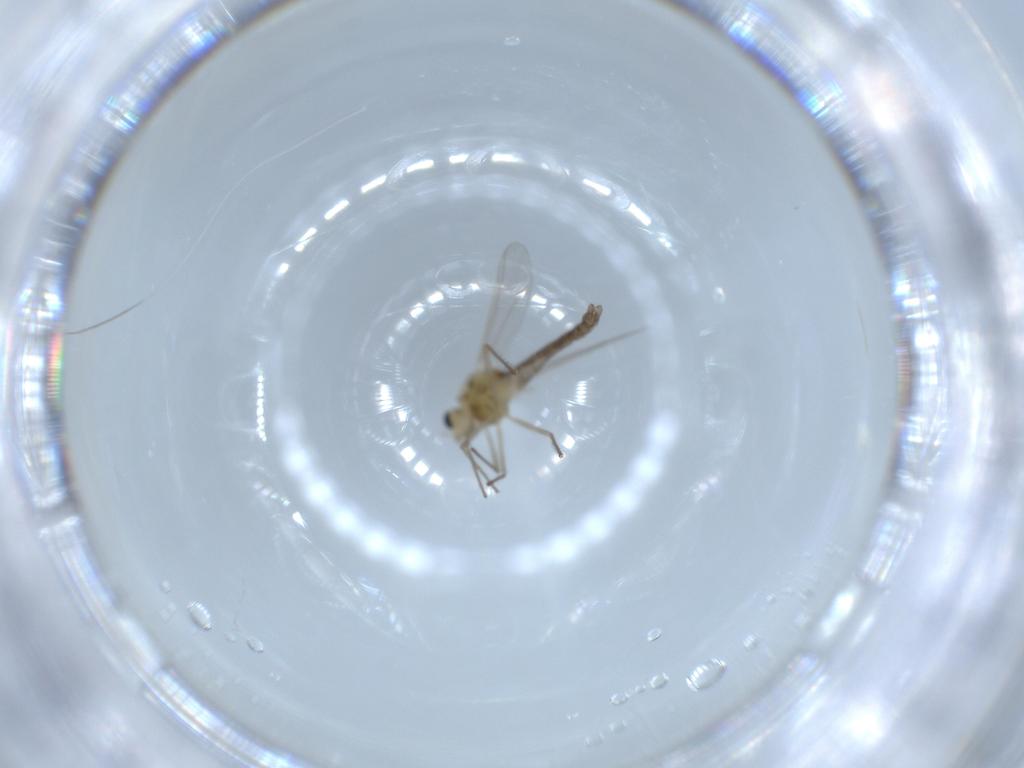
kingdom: Animalia
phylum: Arthropoda
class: Insecta
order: Diptera
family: Chironomidae
